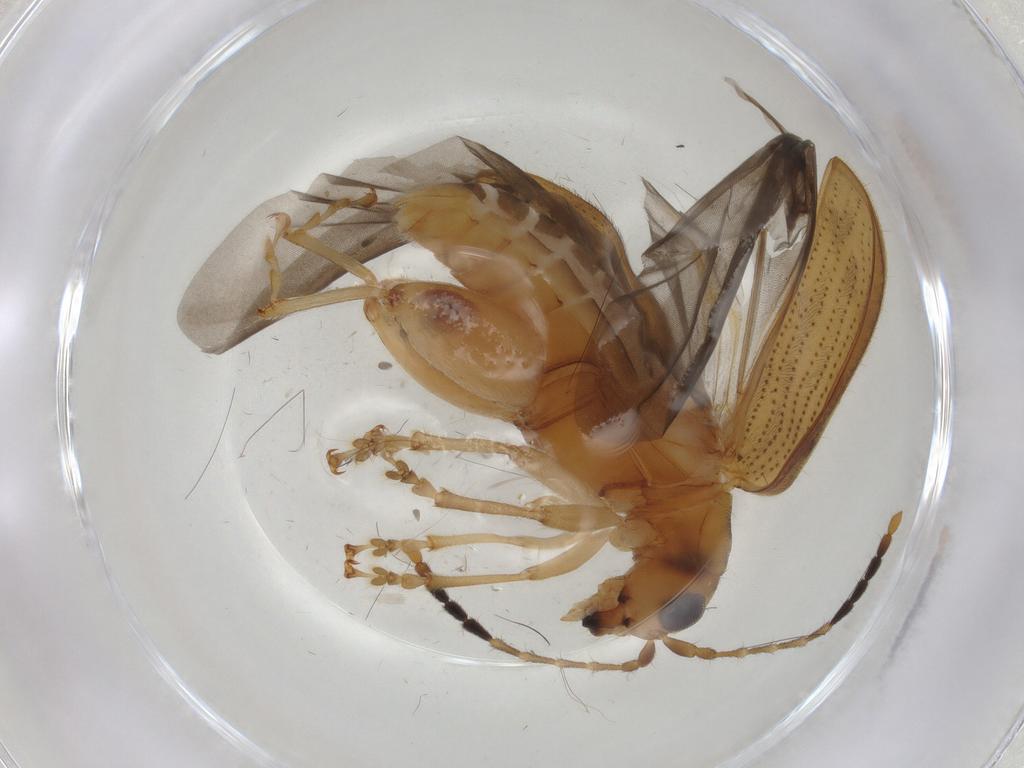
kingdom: Animalia
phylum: Arthropoda
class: Insecta
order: Coleoptera
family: Chrysomelidae
